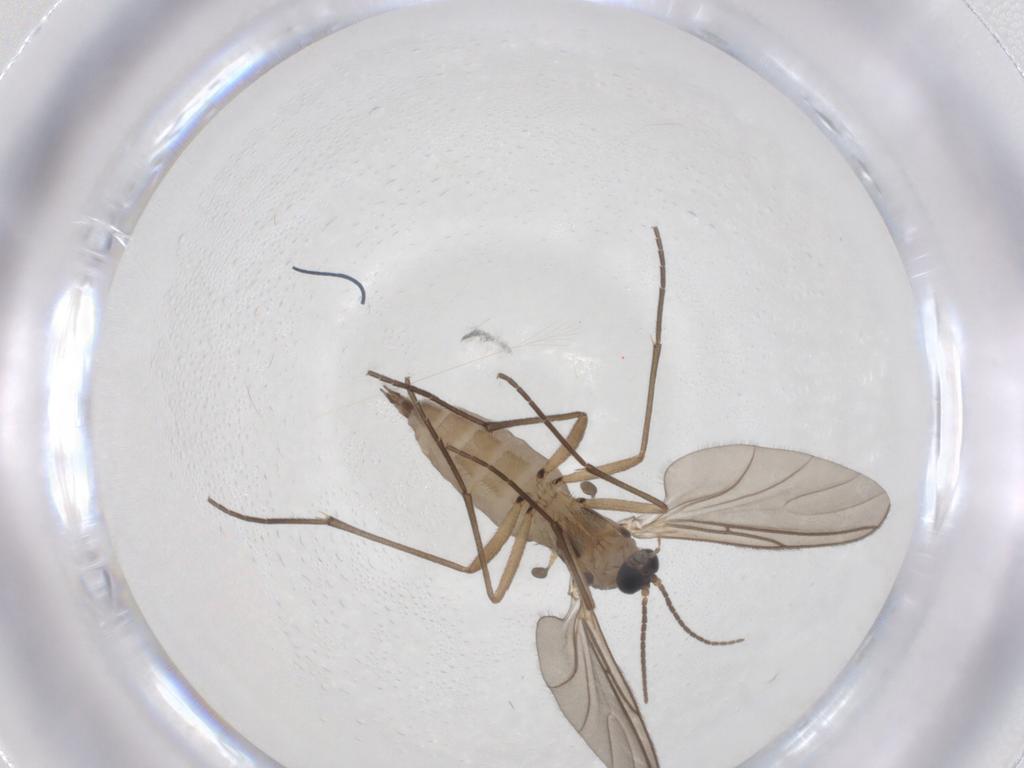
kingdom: Animalia
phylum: Arthropoda
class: Insecta
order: Diptera
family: Sciaridae
